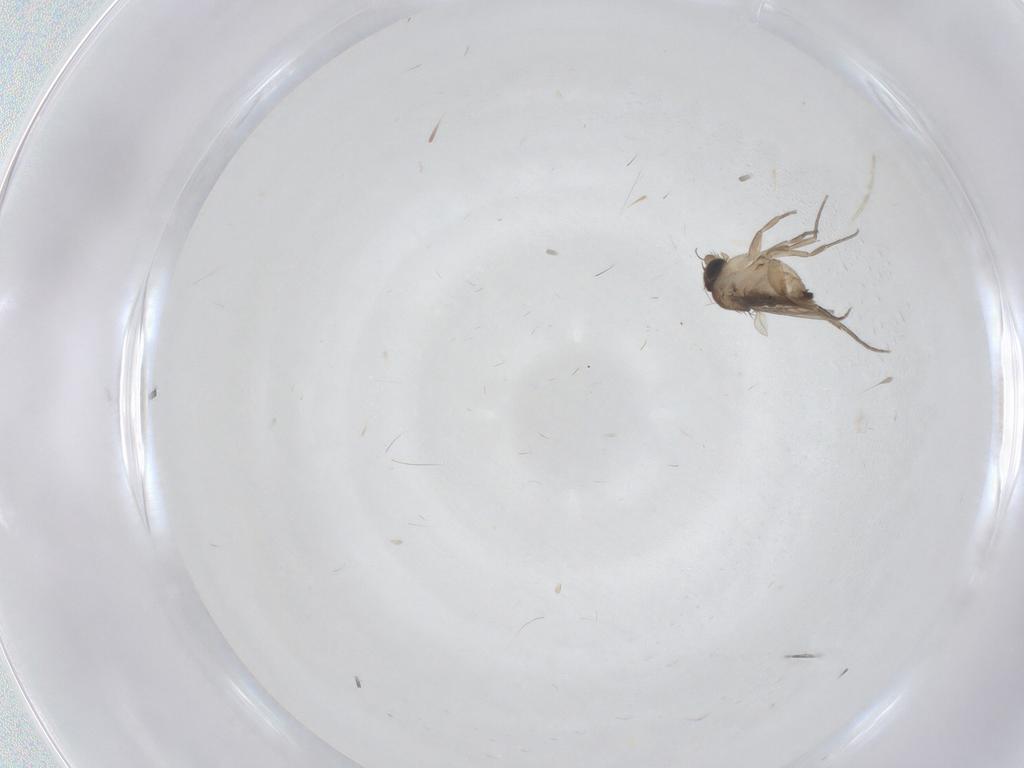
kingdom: Animalia
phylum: Arthropoda
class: Insecta
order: Diptera
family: Phoridae
